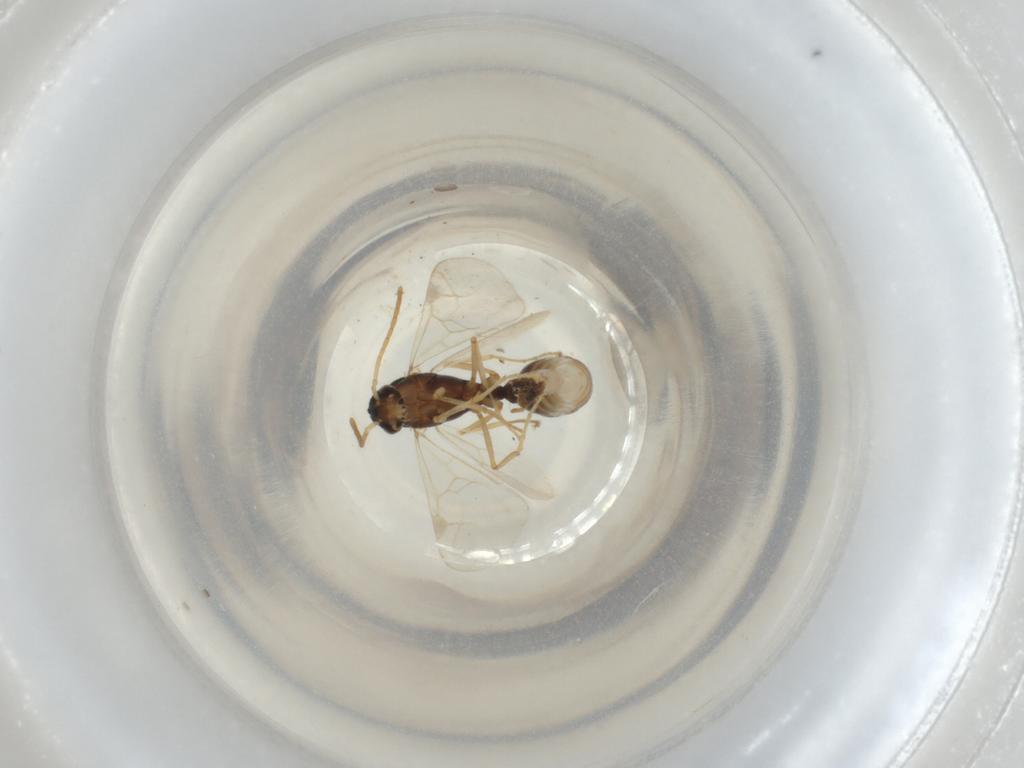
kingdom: Animalia
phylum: Arthropoda
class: Insecta
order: Hymenoptera
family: Formicidae
